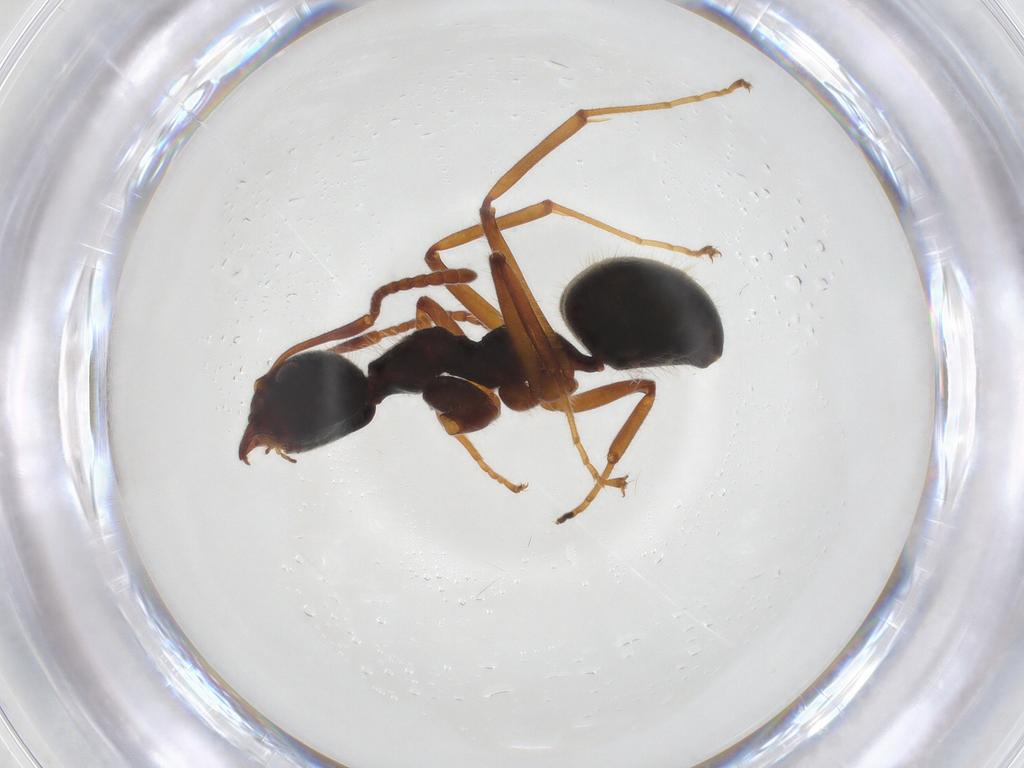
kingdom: Animalia
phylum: Arthropoda
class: Insecta
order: Hymenoptera
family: Formicidae
